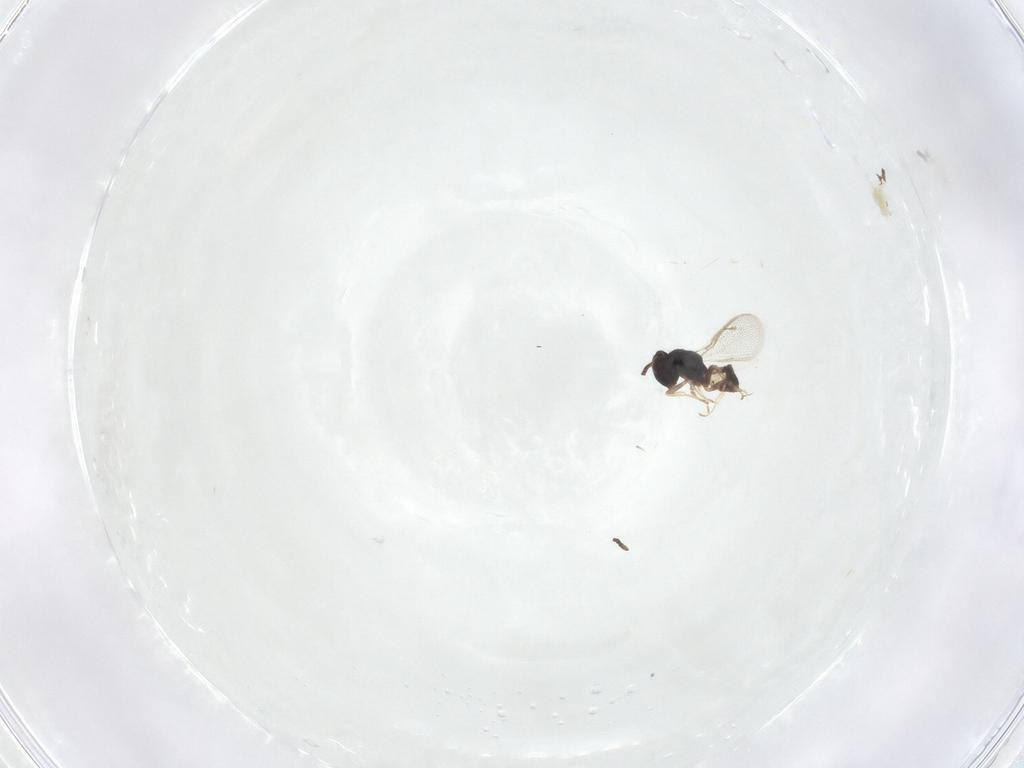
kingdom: Animalia
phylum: Arthropoda
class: Insecta
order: Hymenoptera
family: Pteromalidae
